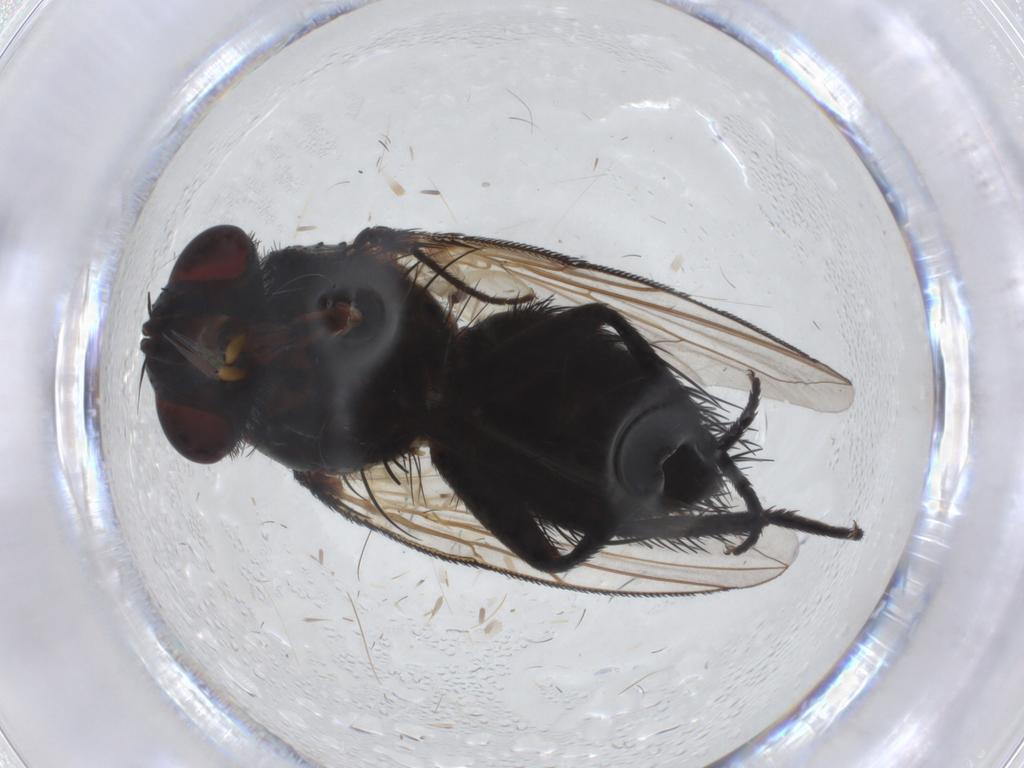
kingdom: Animalia
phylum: Arthropoda
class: Insecta
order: Diptera
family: Tachinidae
